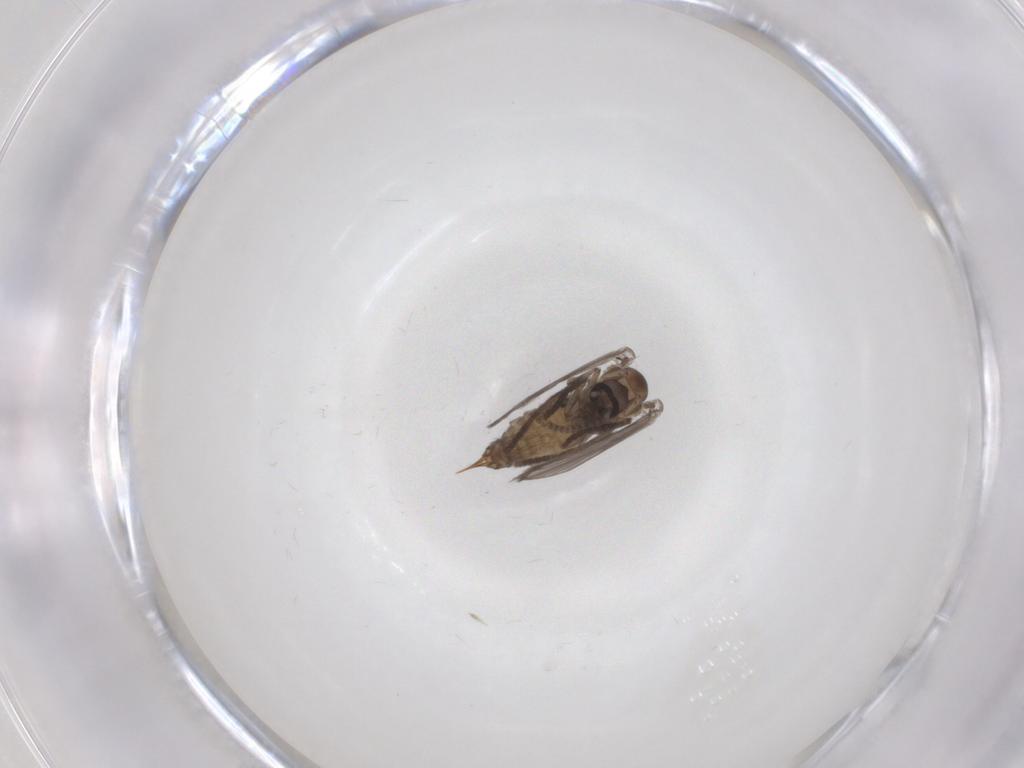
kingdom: Animalia
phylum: Arthropoda
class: Insecta
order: Diptera
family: Psychodidae
